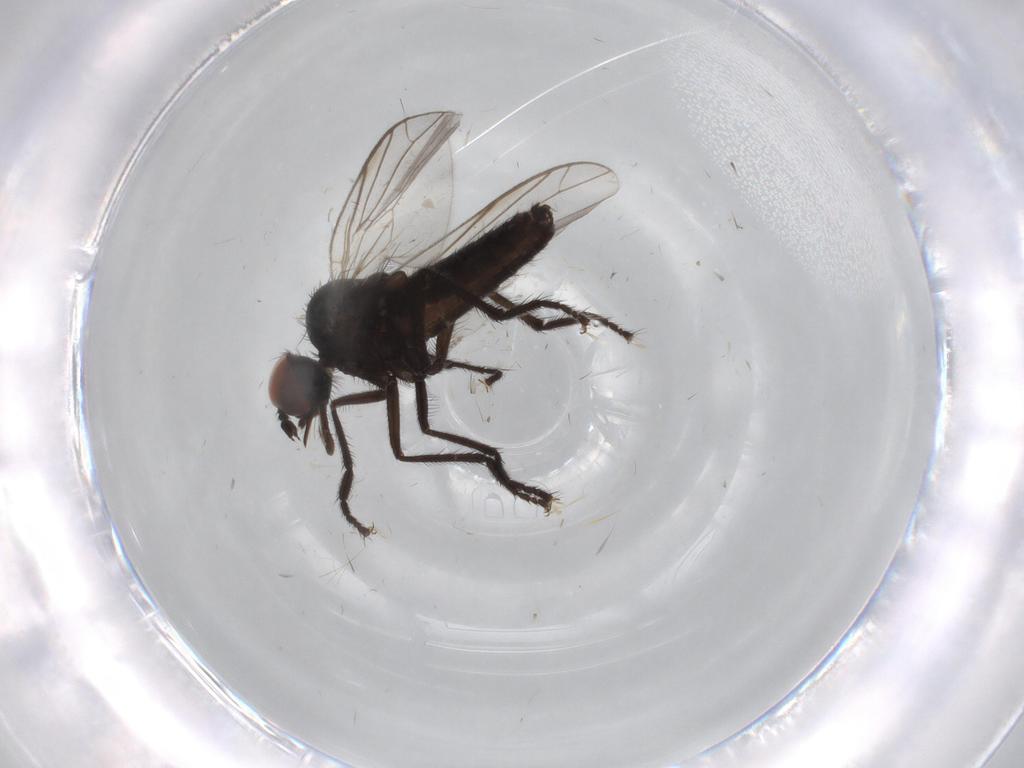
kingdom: Animalia
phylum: Arthropoda
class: Insecta
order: Diptera
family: Empididae
